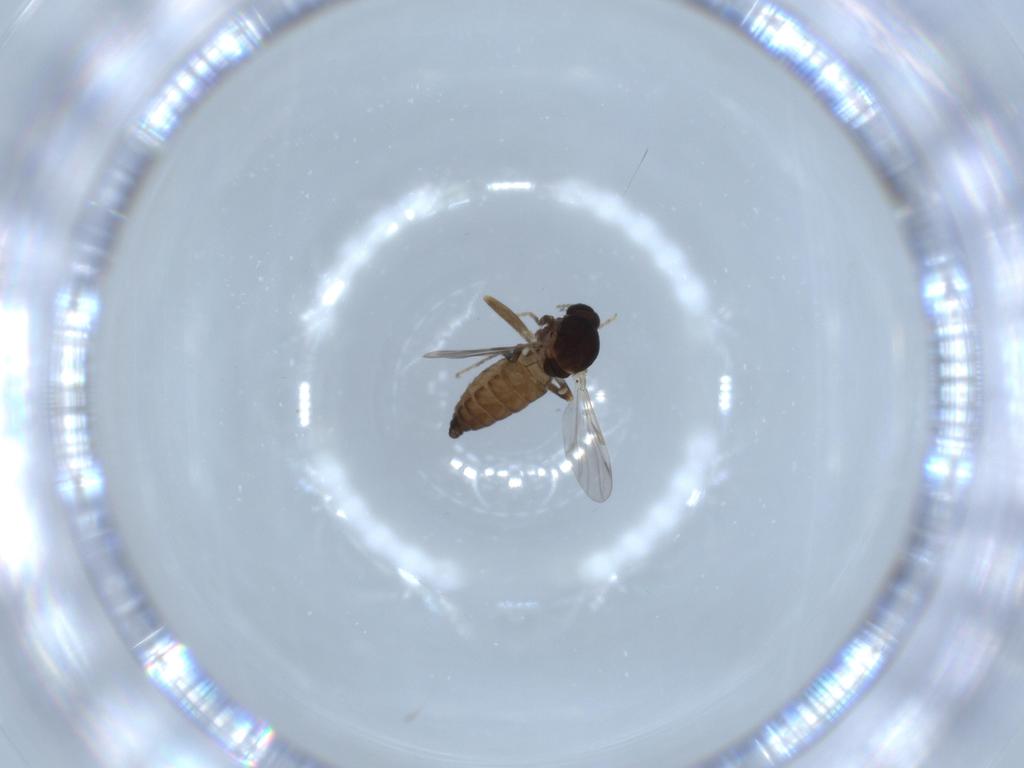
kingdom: Animalia
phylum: Arthropoda
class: Insecta
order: Diptera
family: Ceratopogonidae
